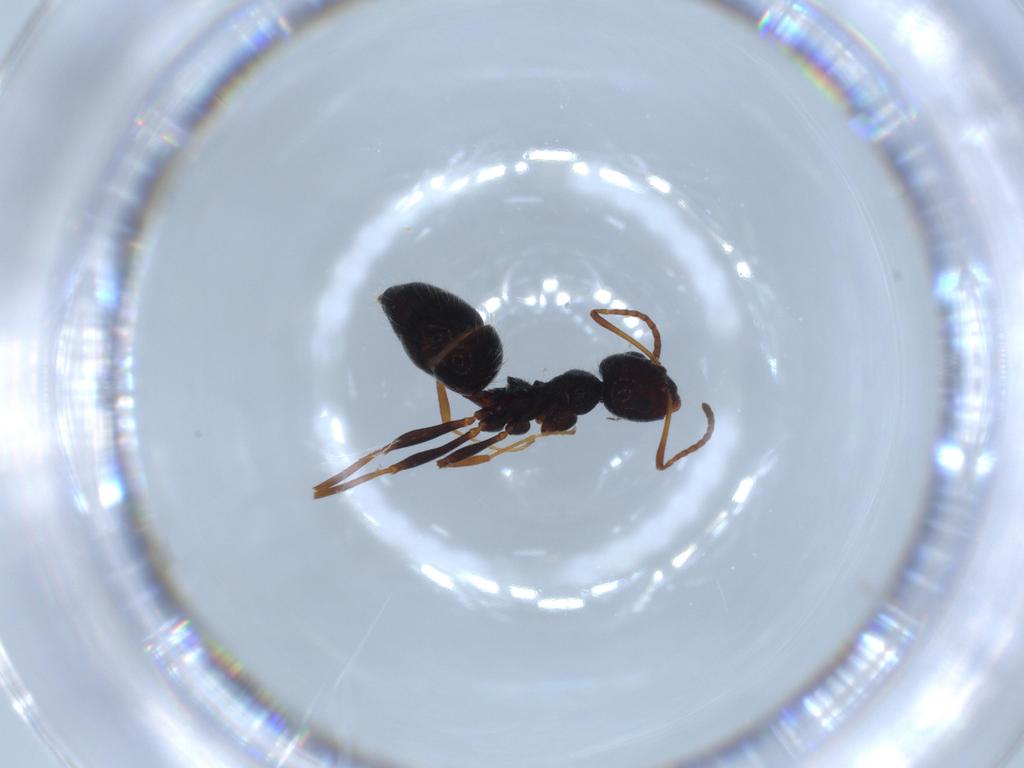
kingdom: Animalia
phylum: Arthropoda
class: Insecta
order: Hymenoptera
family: Formicidae
